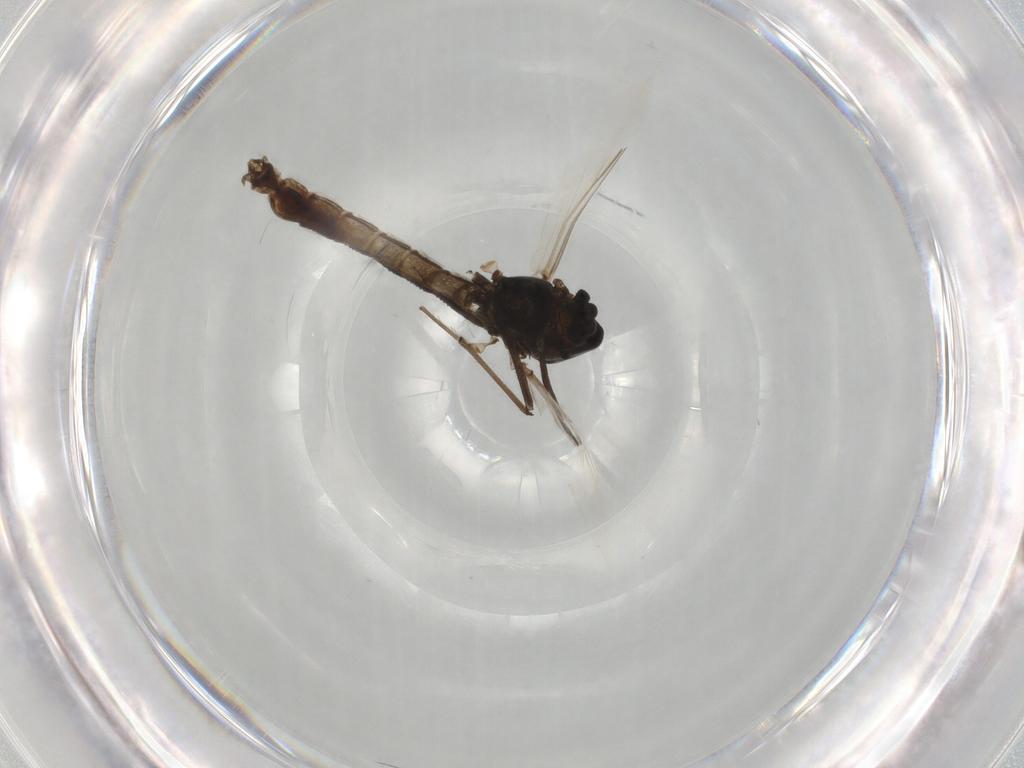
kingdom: Animalia
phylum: Arthropoda
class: Insecta
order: Diptera
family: Chironomidae
